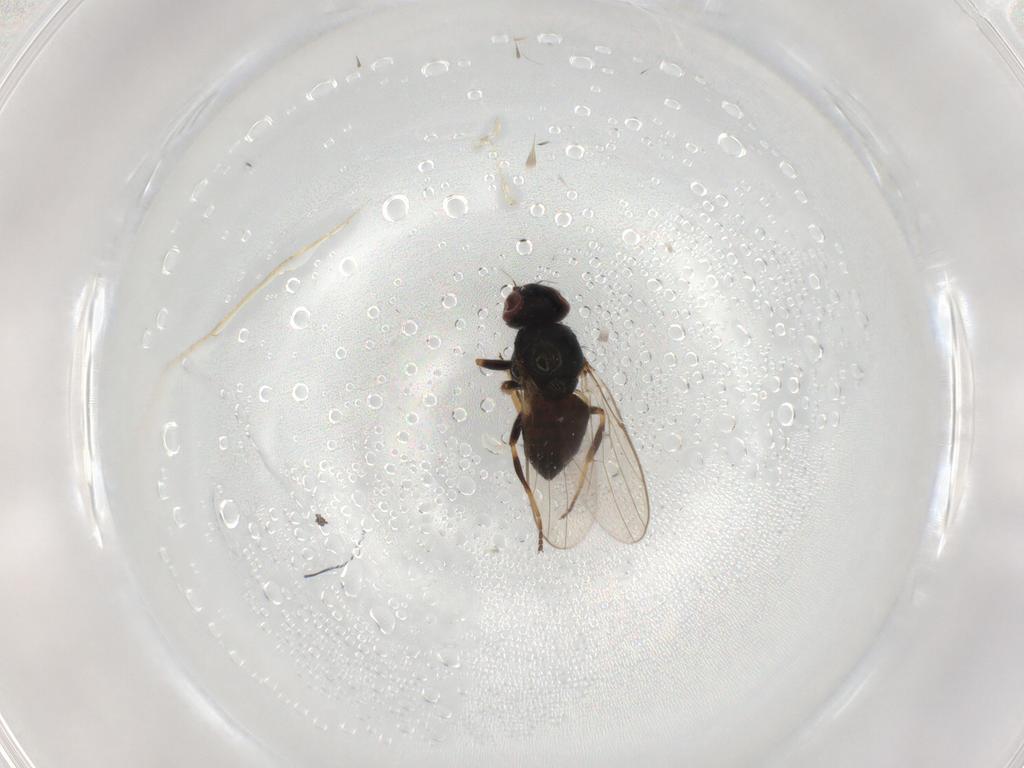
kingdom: Animalia
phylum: Arthropoda
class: Insecta
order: Diptera
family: Chloropidae
